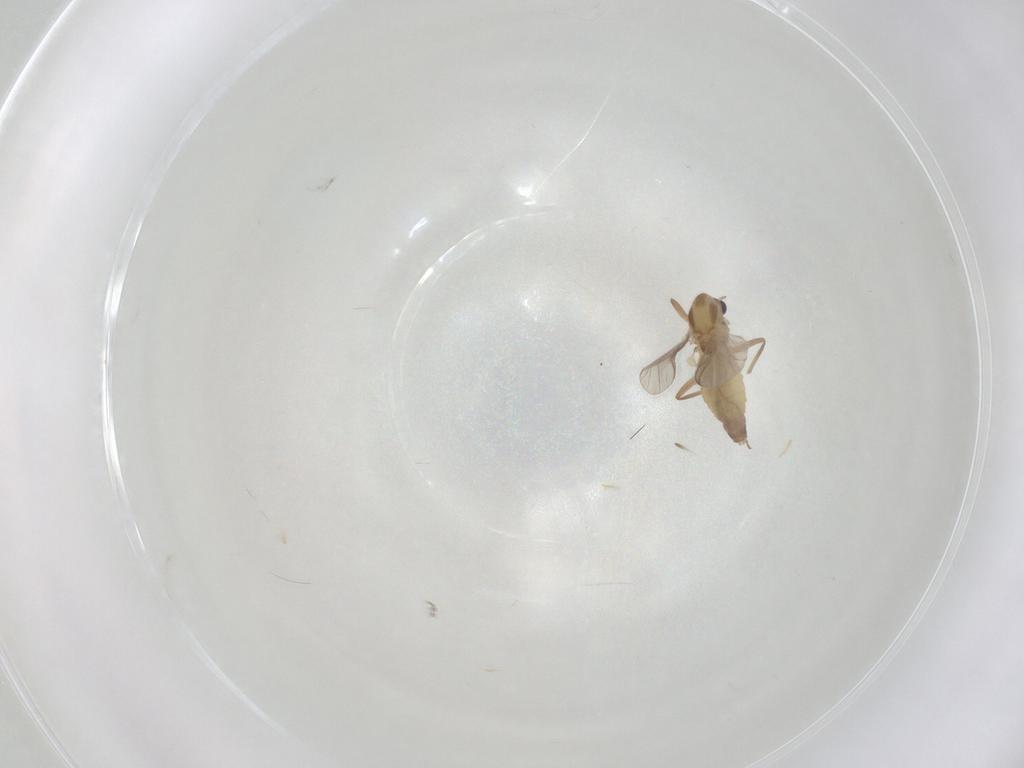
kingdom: Animalia
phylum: Arthropoda
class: Insecta
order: Diptera
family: Chironomidae
